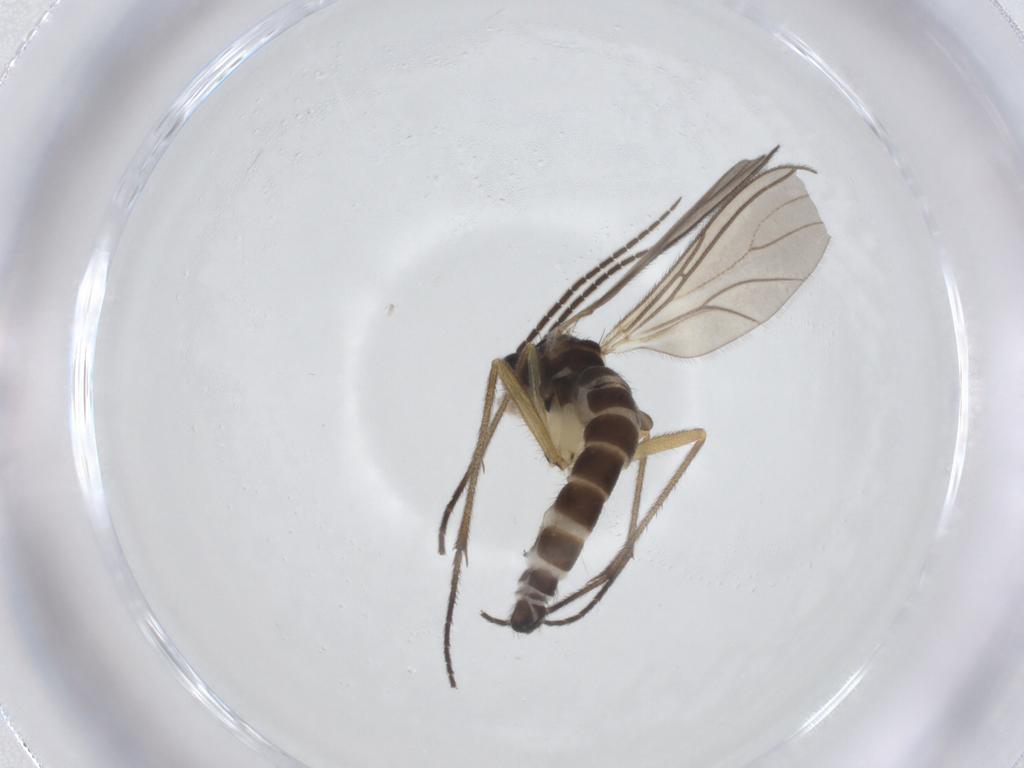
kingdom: Animalia
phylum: Arthropoda
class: Insecta
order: Diptera
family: Sciaridae
